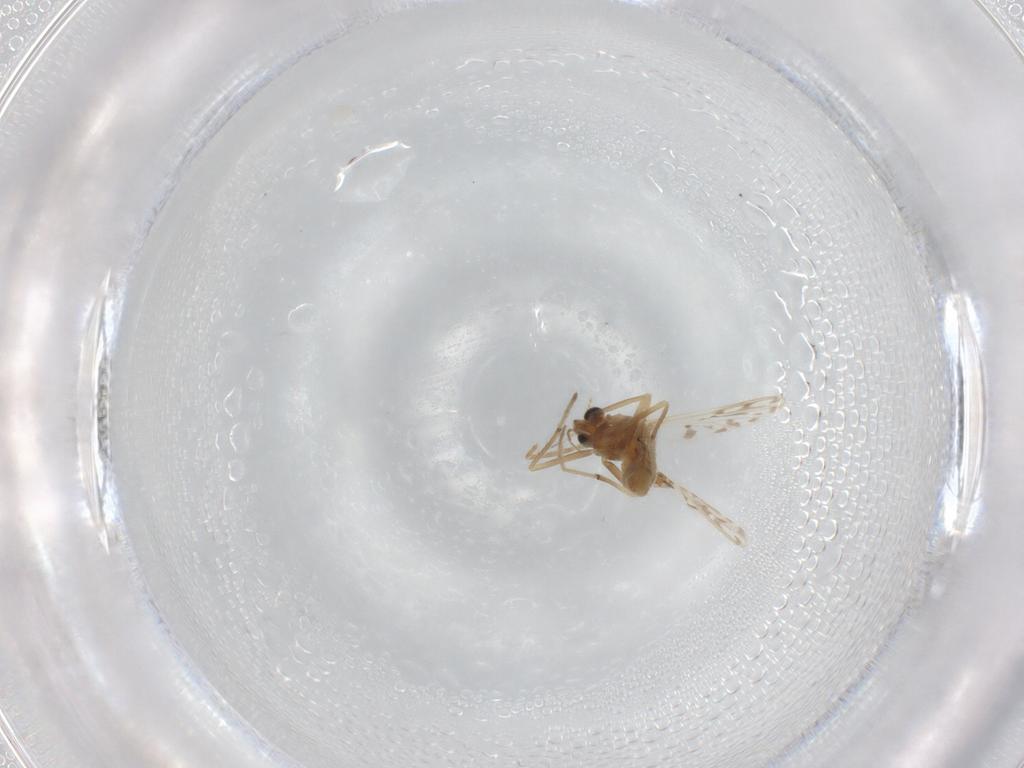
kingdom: Animalia
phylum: Arthropoda
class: Insecta
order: Diptera
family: Chironomidae
